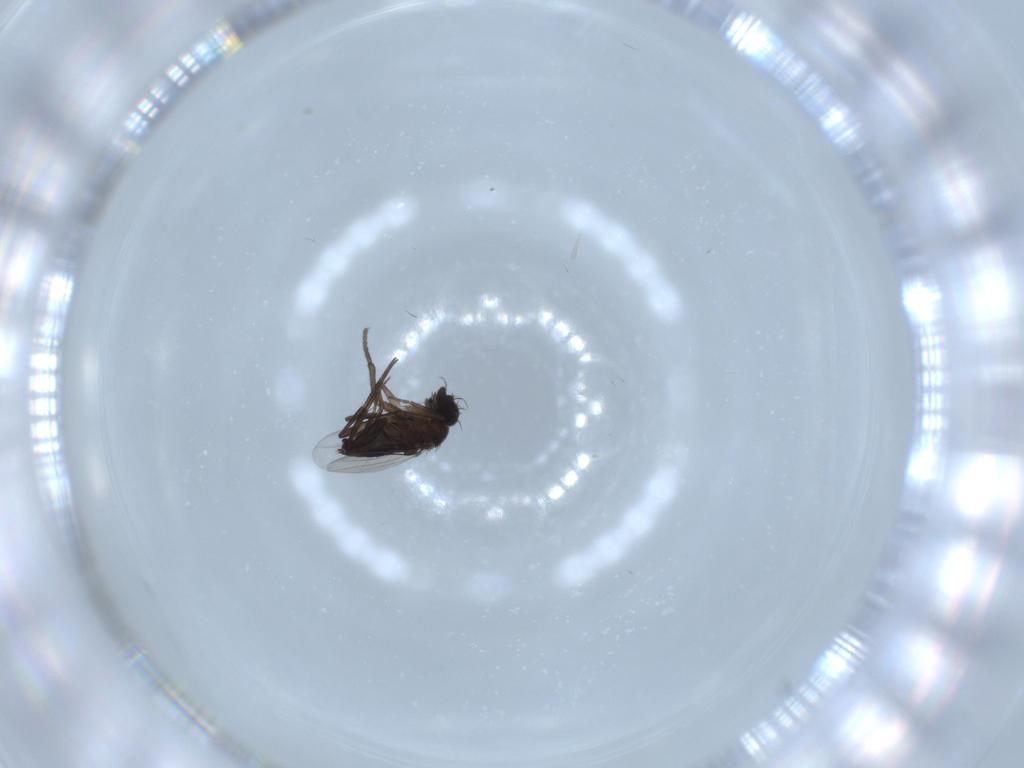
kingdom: Animalia
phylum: Arthropoda
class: Insecta
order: Diptera
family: Sciaridae
